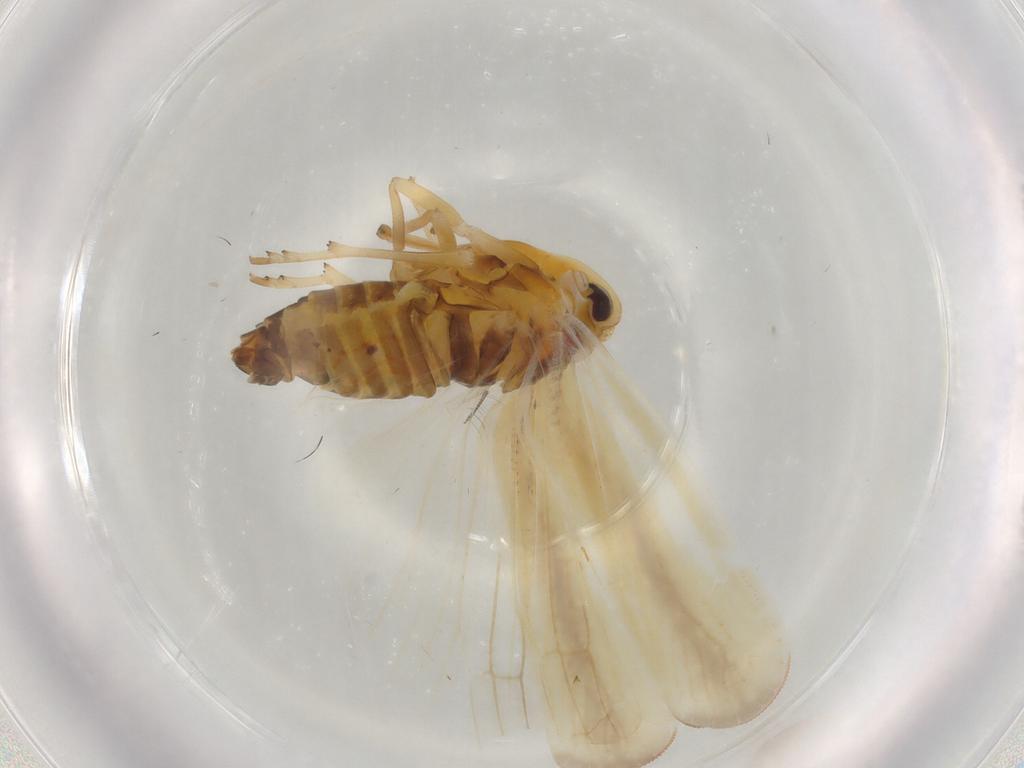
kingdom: Animalia
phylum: Arthropoda
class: Insecta
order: Hemiptera
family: Derbidae
